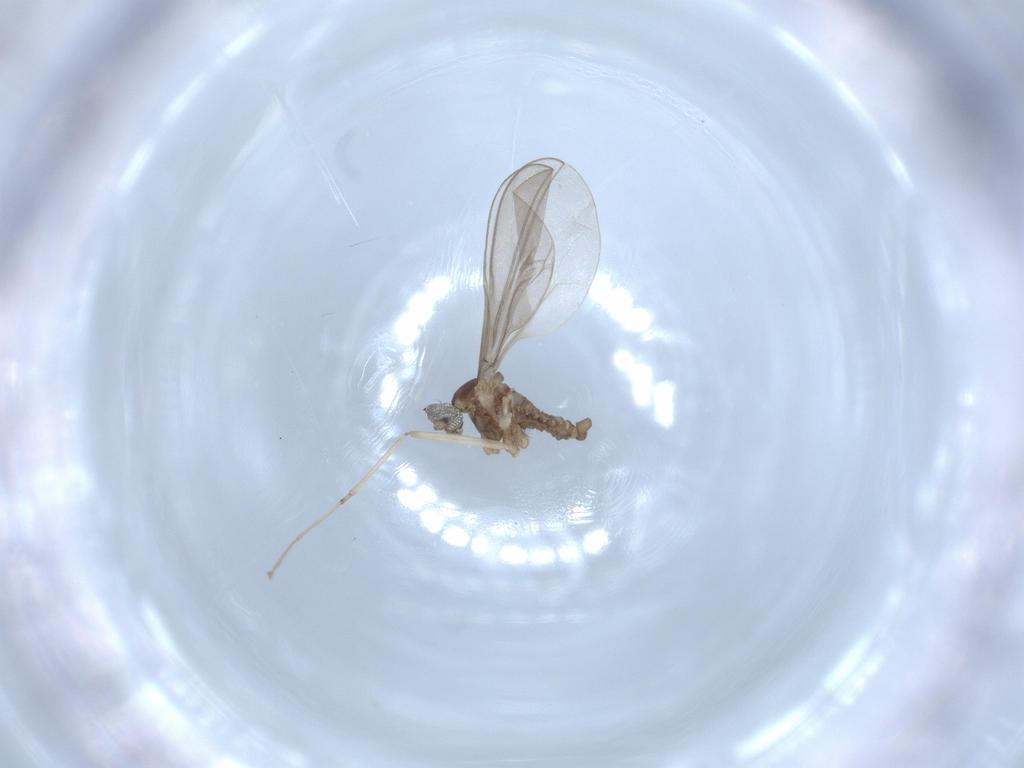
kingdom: Animalia
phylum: Arthropoda
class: Insecta
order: Diptera
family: Cecidomyiidae
